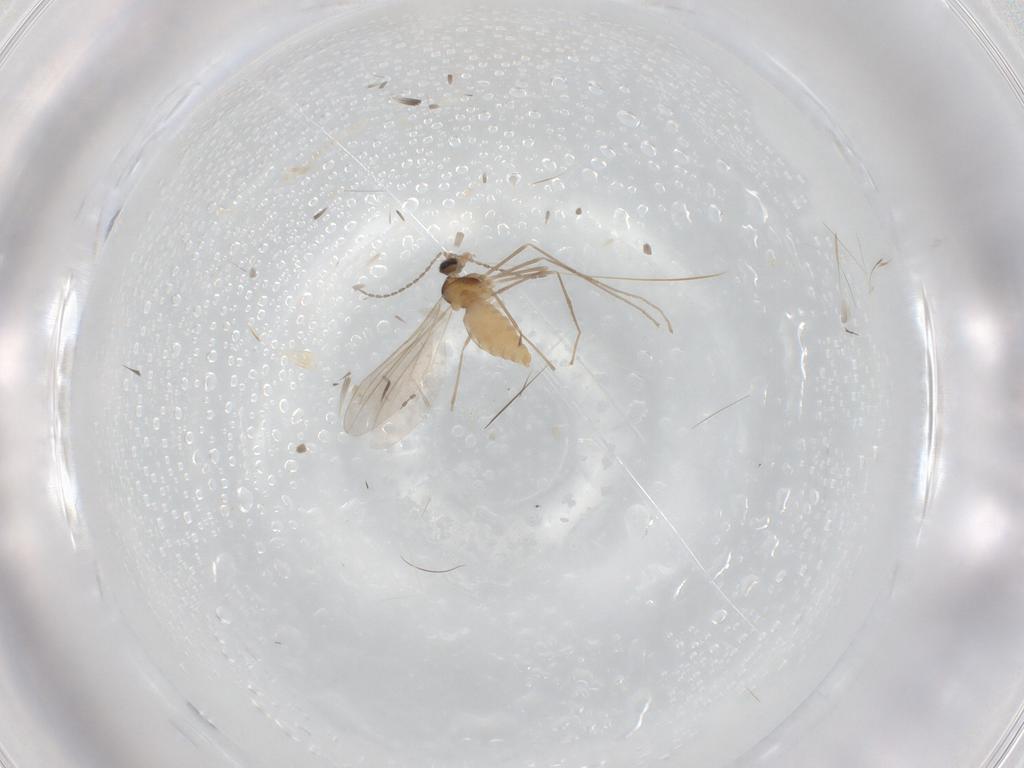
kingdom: Animalia
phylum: Arthropoda
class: Insecta
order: Diptera
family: Cecidomyiidae
